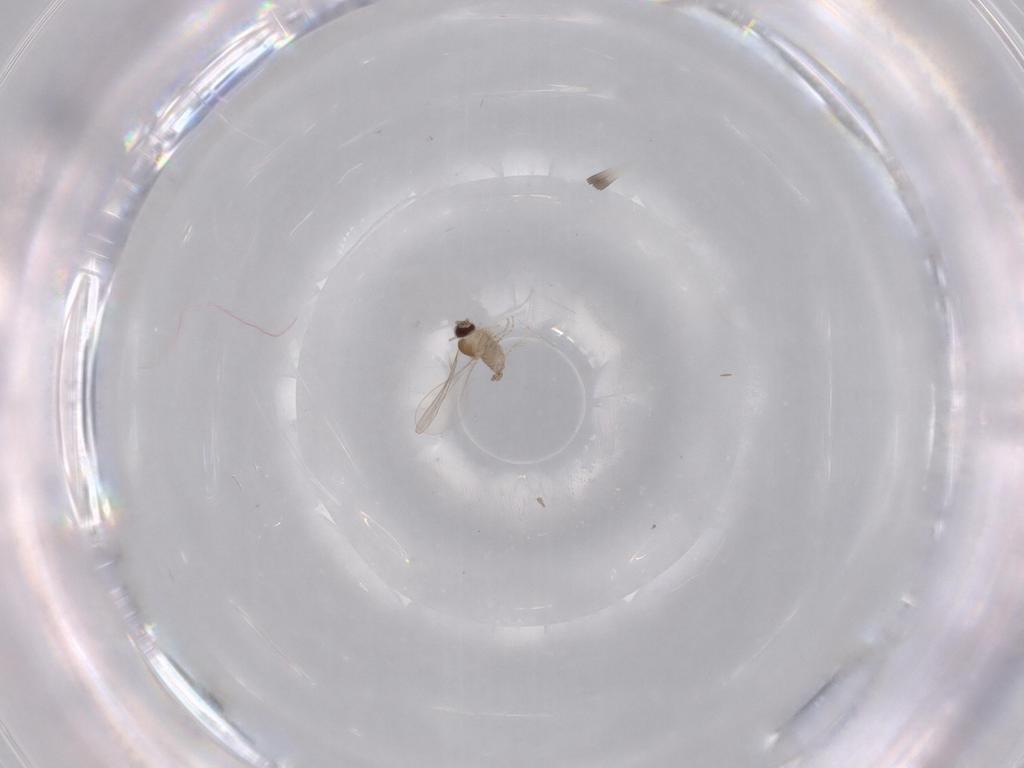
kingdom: Animalia
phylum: Arthropoda
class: Insecta
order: Diptera
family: Cecidomyiidae
